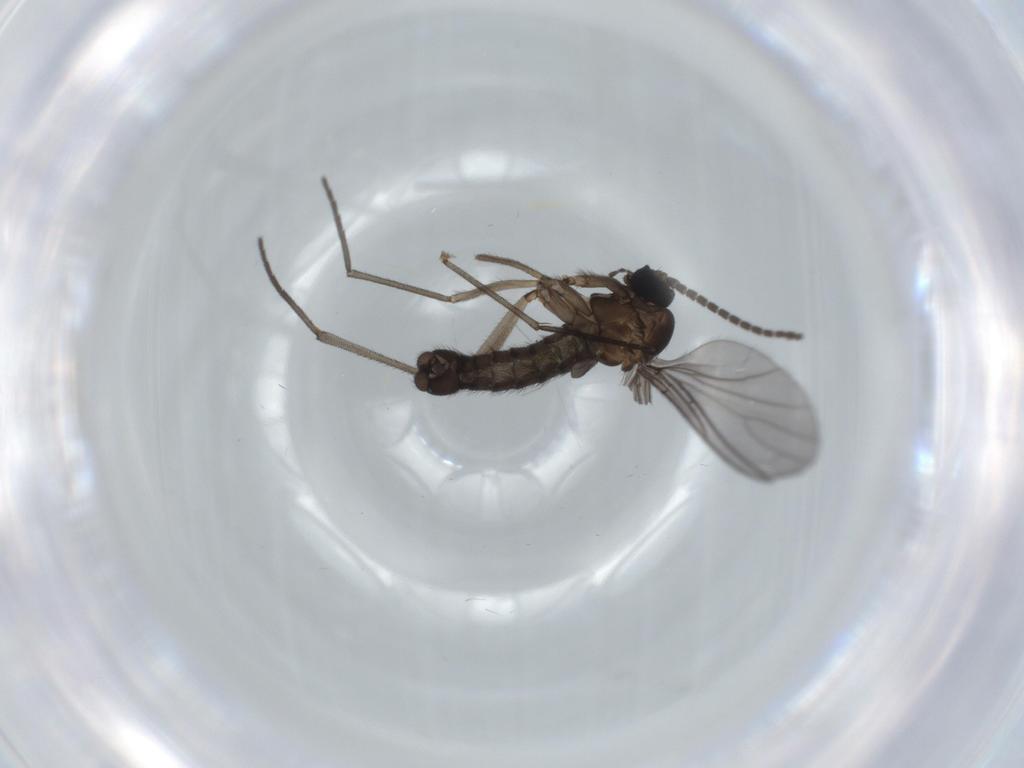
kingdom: Animalia
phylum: Arthropoda
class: Insecta
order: Diptera
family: Sciaridae
